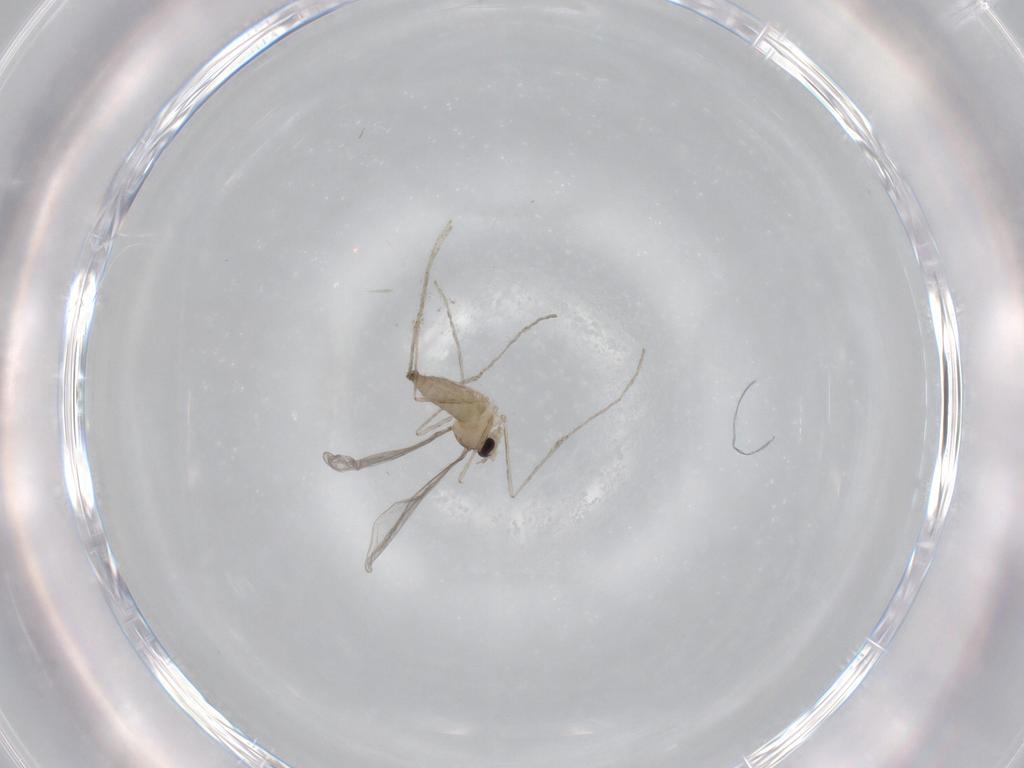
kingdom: Animalia
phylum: Arthropoda
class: Insecta
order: Diptera
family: Cecidomyiidae
